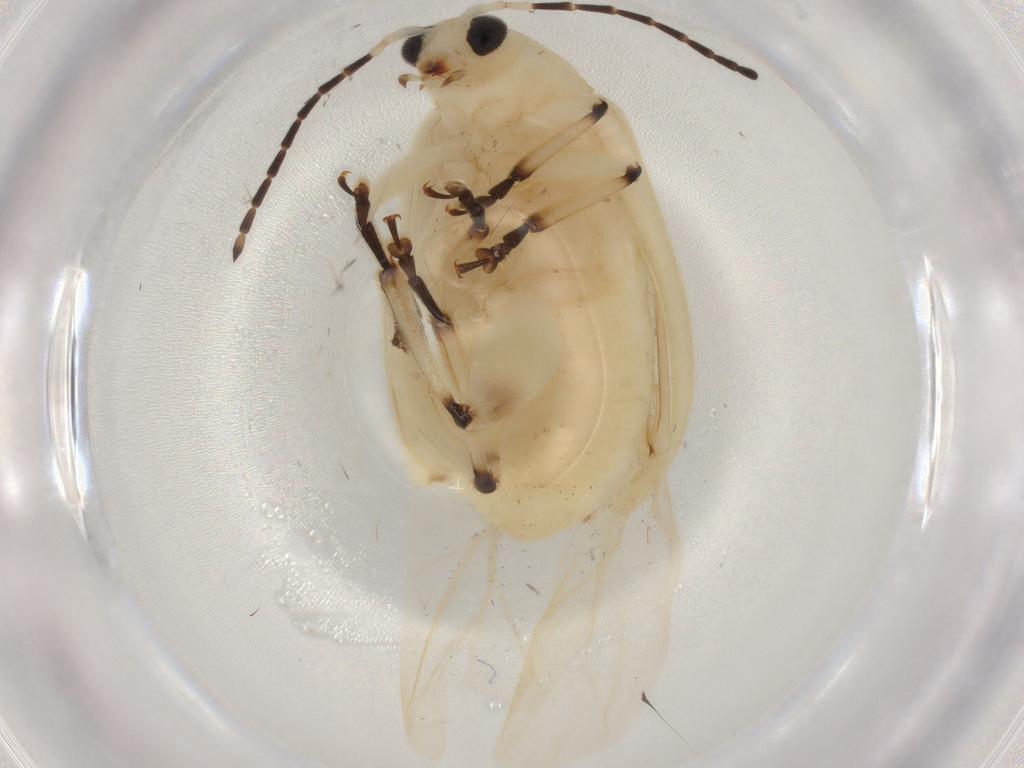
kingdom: Animalia
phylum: Arthropoda
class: Insecta
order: Coleoptera
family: Chrysomelidae
